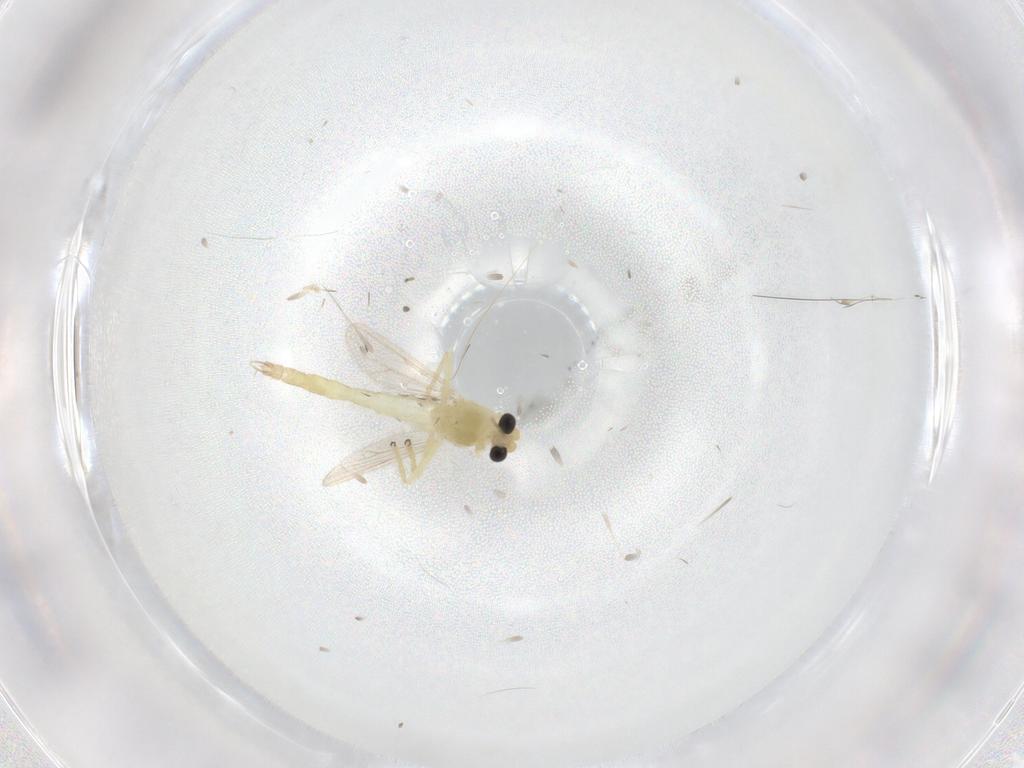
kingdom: Animalia
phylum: Arthropoda
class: Insecta
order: Diptera
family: Chironomidae
